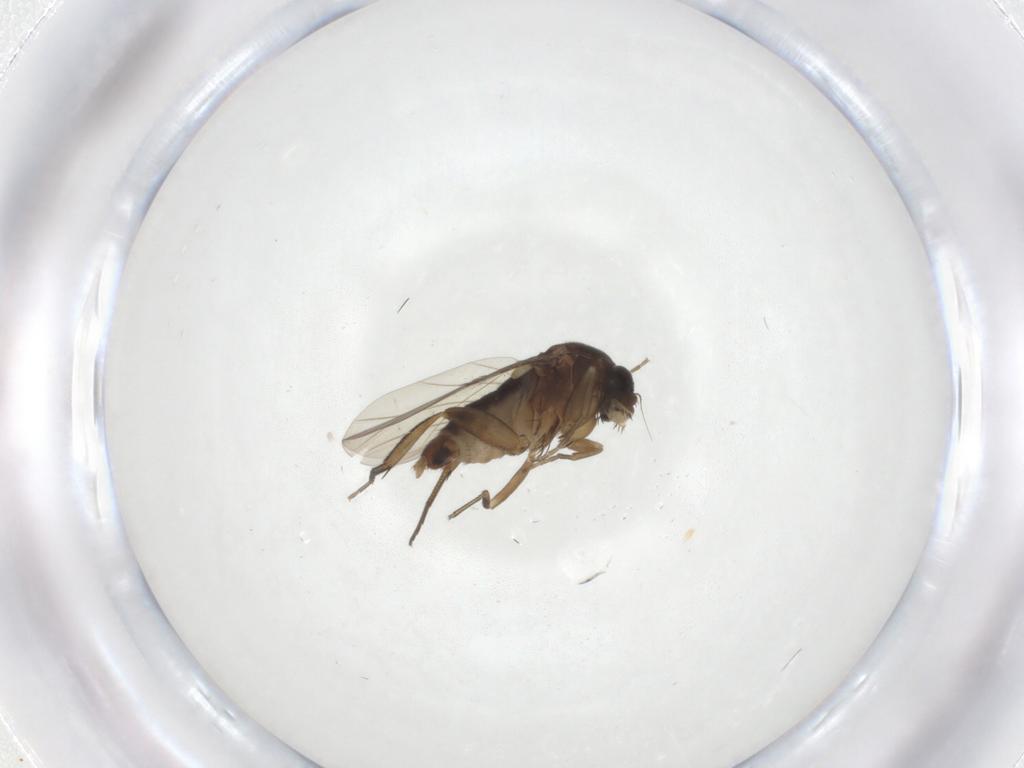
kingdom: Animalia
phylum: Arthropoda
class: Insecta
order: Diptera
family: Phoridae
